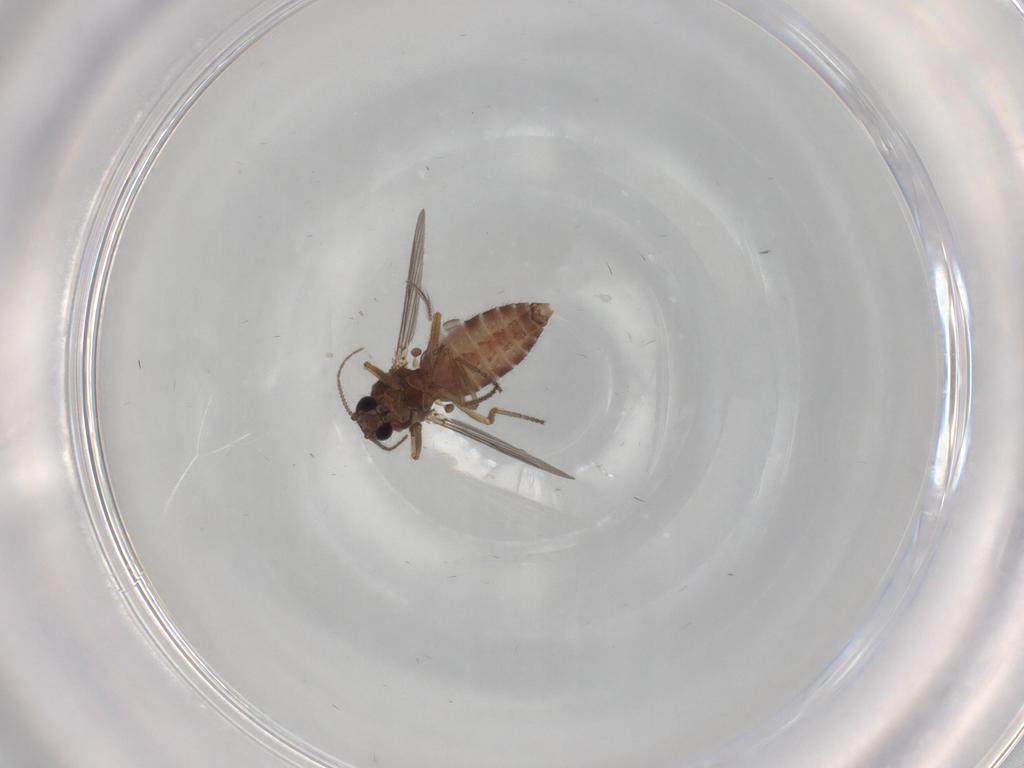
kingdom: Animalia
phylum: Arthropoda
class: Insecta
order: Diptera
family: Ceratopogonidae
